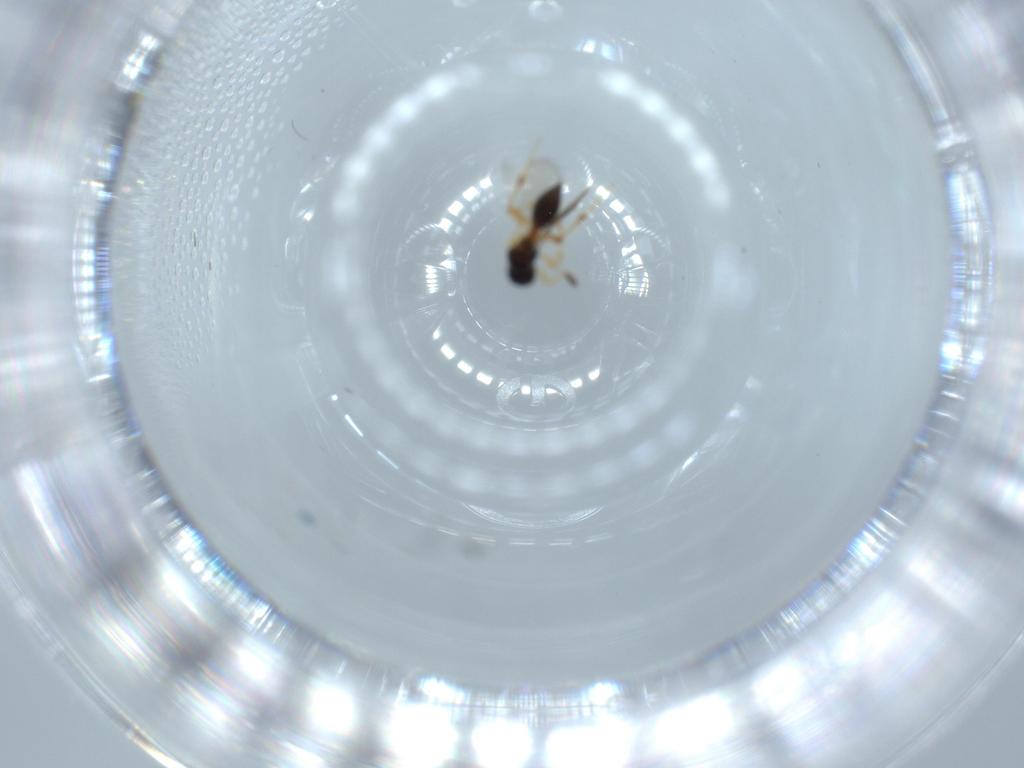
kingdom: Animalia
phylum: Arthropoda
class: Insecta
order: Hymenoptera
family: Platygastridae
